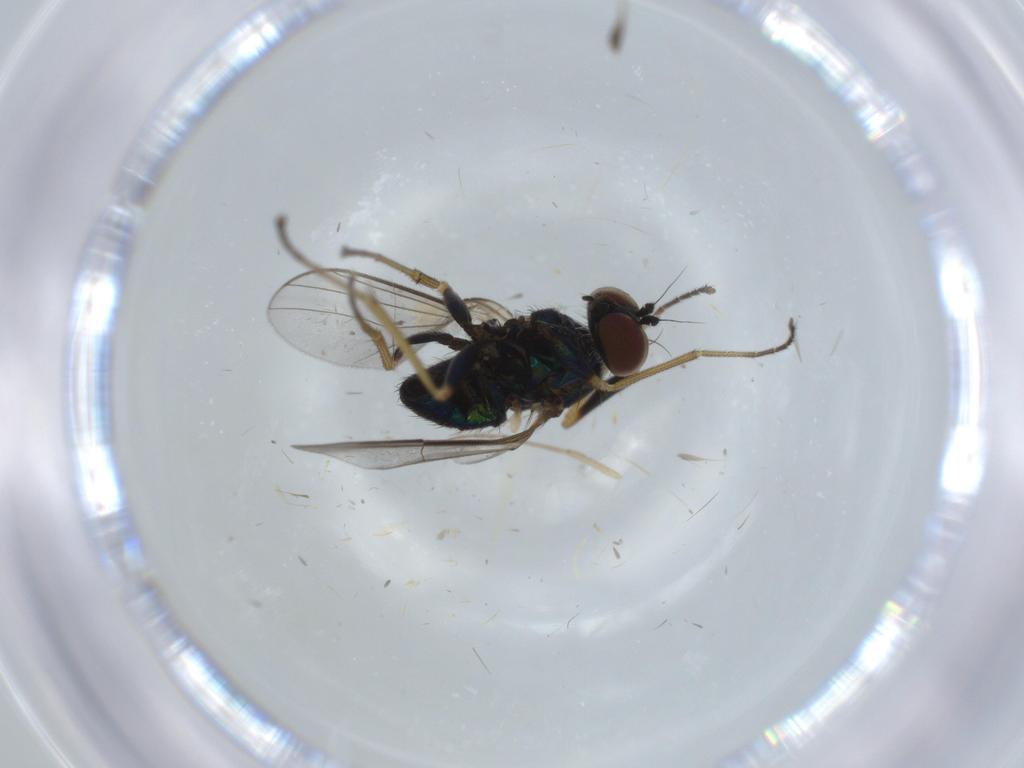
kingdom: Animalia
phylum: Arthropoda
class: Insecta
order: Diptera
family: Dolichopodidae
